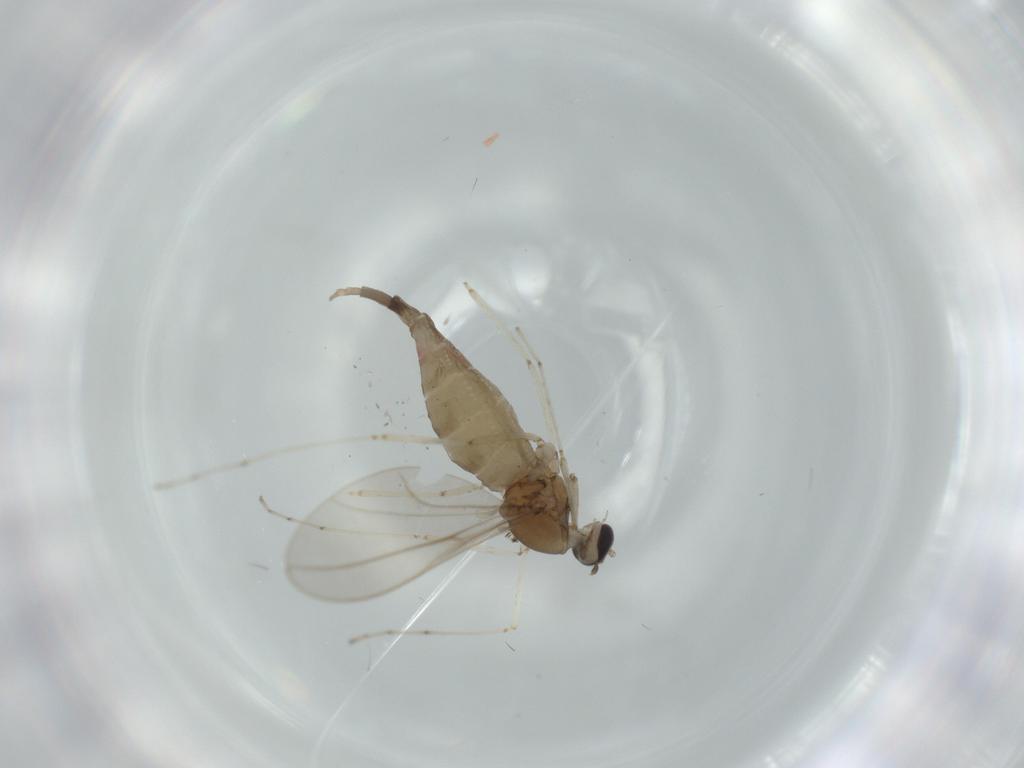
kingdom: Animalia
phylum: Arthropoda
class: Insecta
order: Diptera
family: Cecidomyiidae
